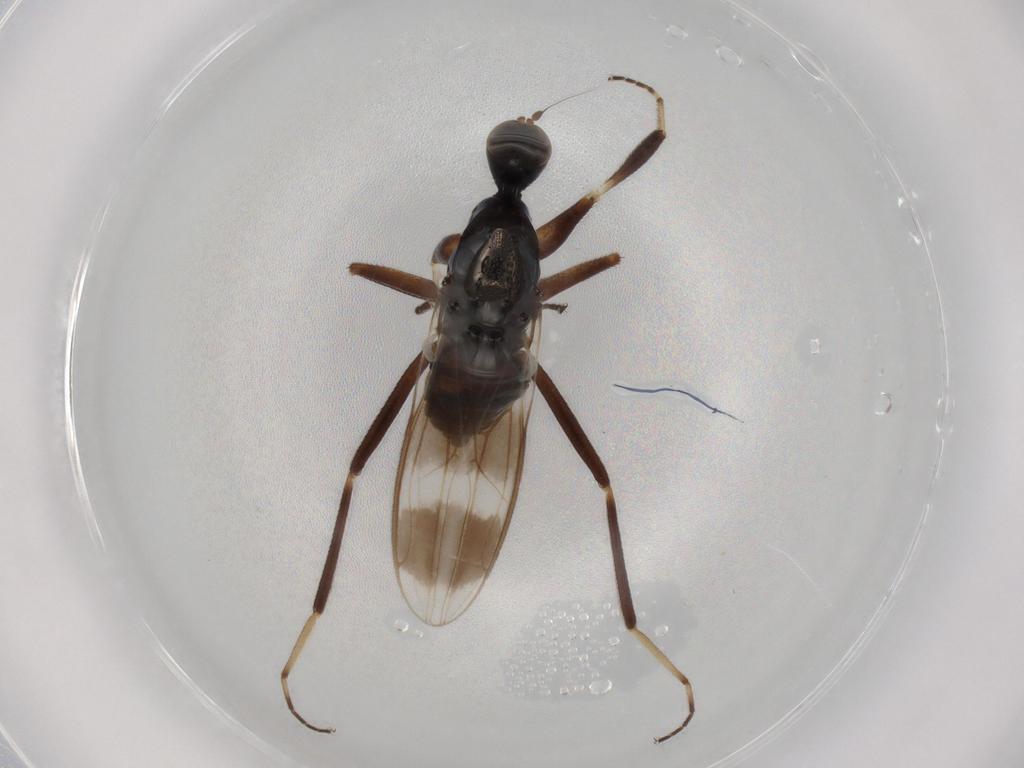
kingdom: Animalia
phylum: Arthropoda
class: Insecta
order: Diptera
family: Hybotidae
